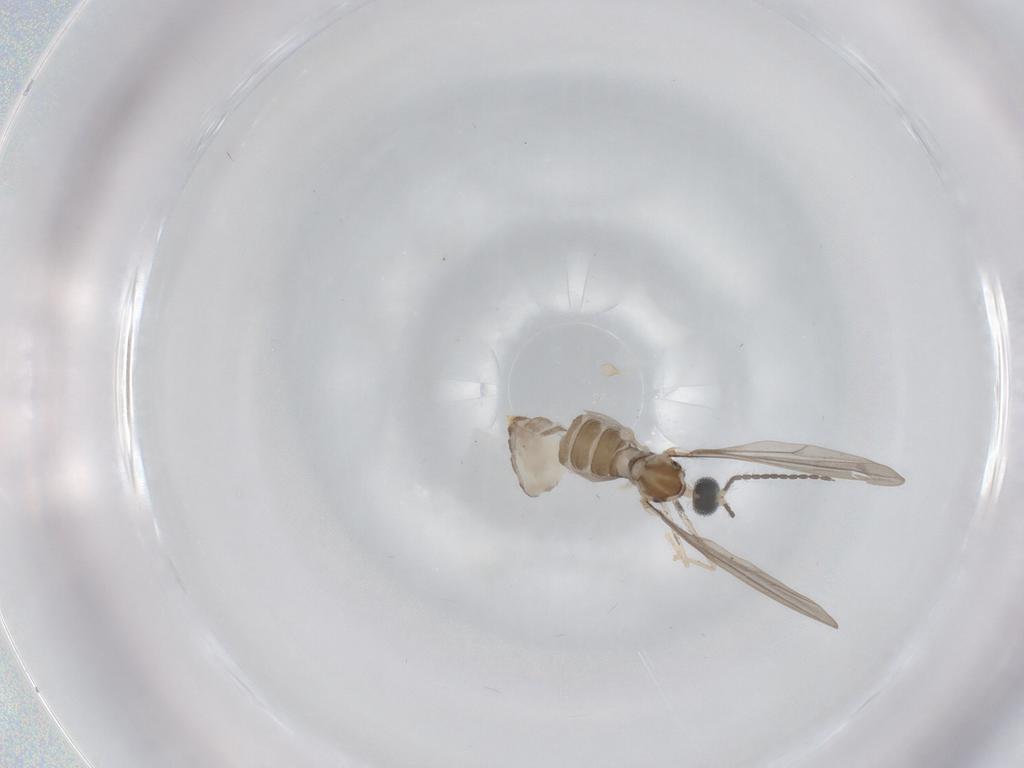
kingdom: Animalia
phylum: Arthropoda
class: Insecta
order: Diptera
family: Cecidomyiidae
